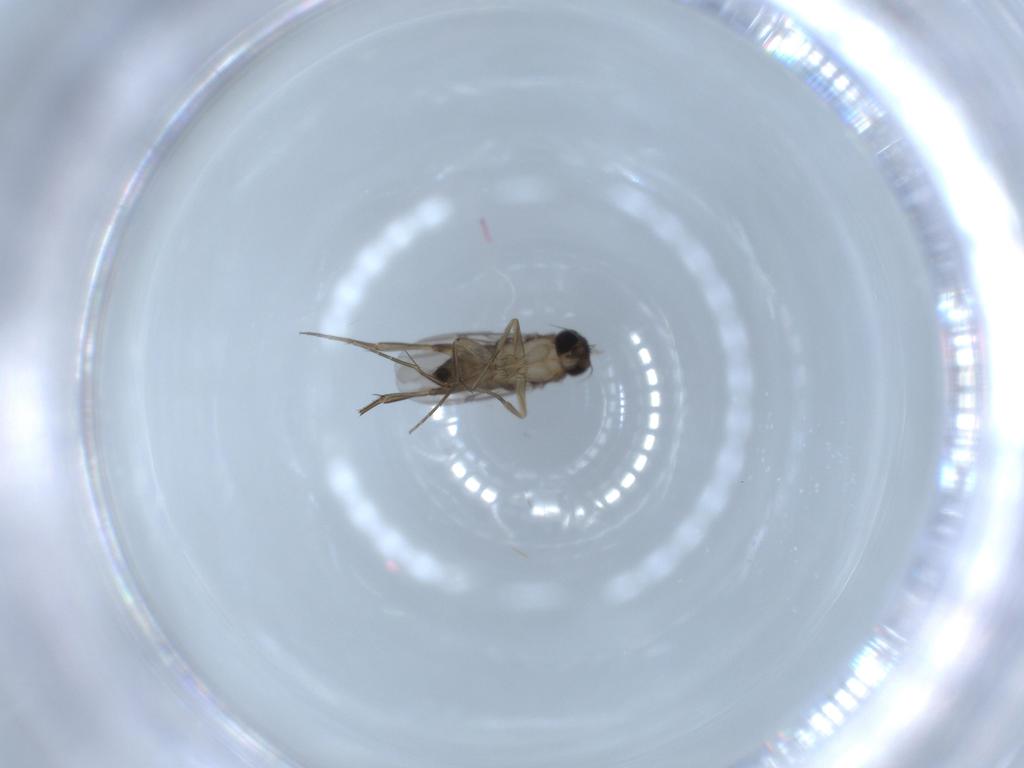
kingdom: Animalia
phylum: Arthropoda
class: Insecta
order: Diptera
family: Phoridae
